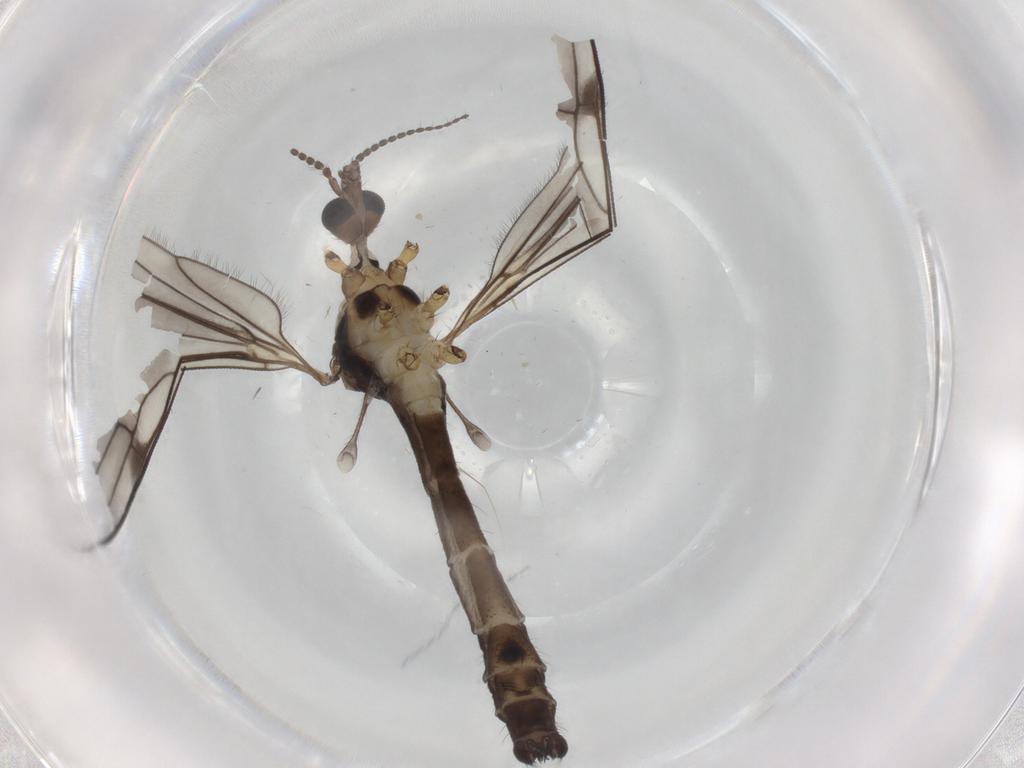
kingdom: Animalia
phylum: Arthropoda
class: Insecta
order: Diptera
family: Phoridae
